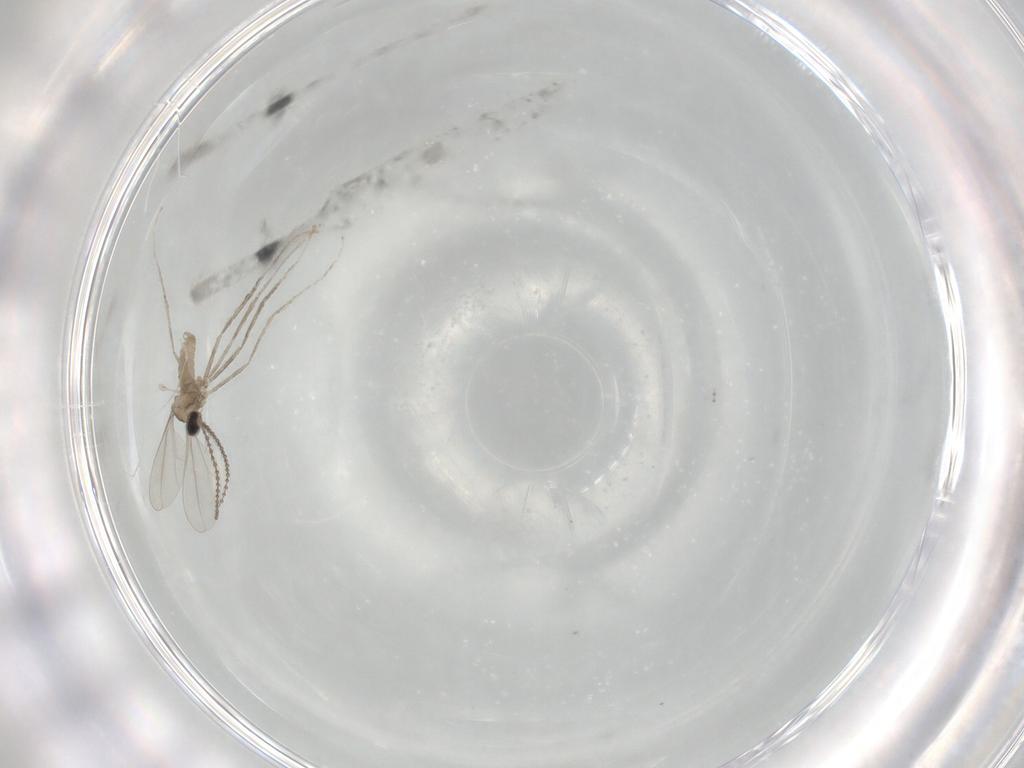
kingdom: Animalia
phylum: Arthropoda
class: Insecta
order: Diptera
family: Cecidomyiidae
